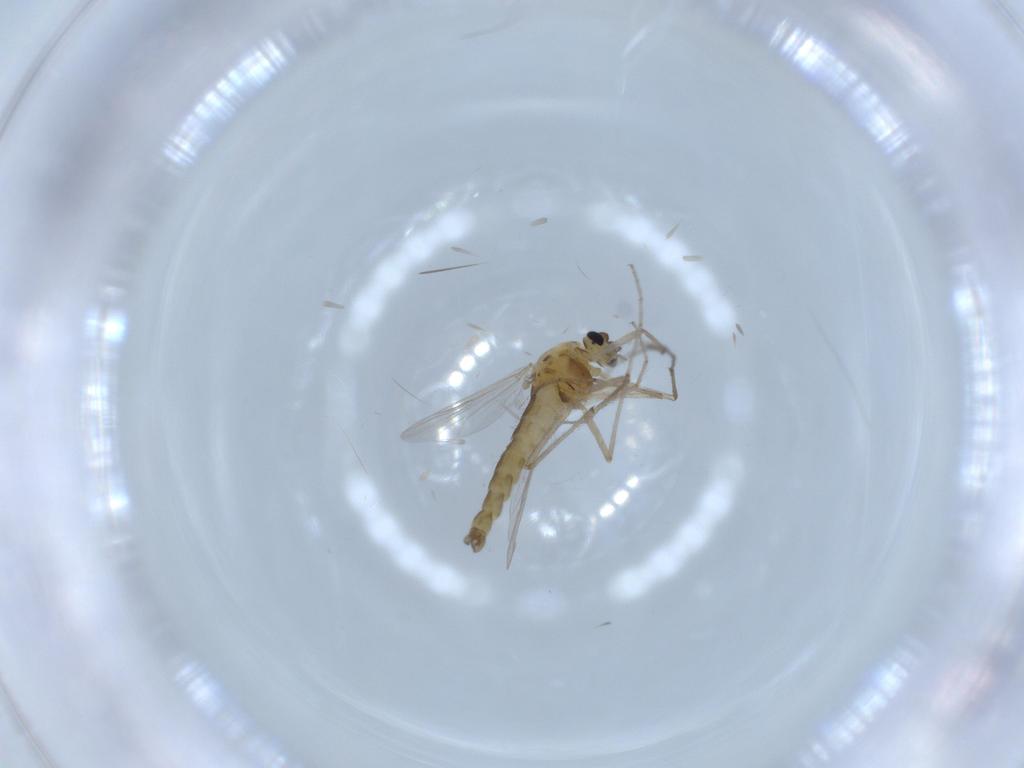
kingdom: Animalia
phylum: Arthropoda
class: Insecta
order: Diptera
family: Chironomidae
